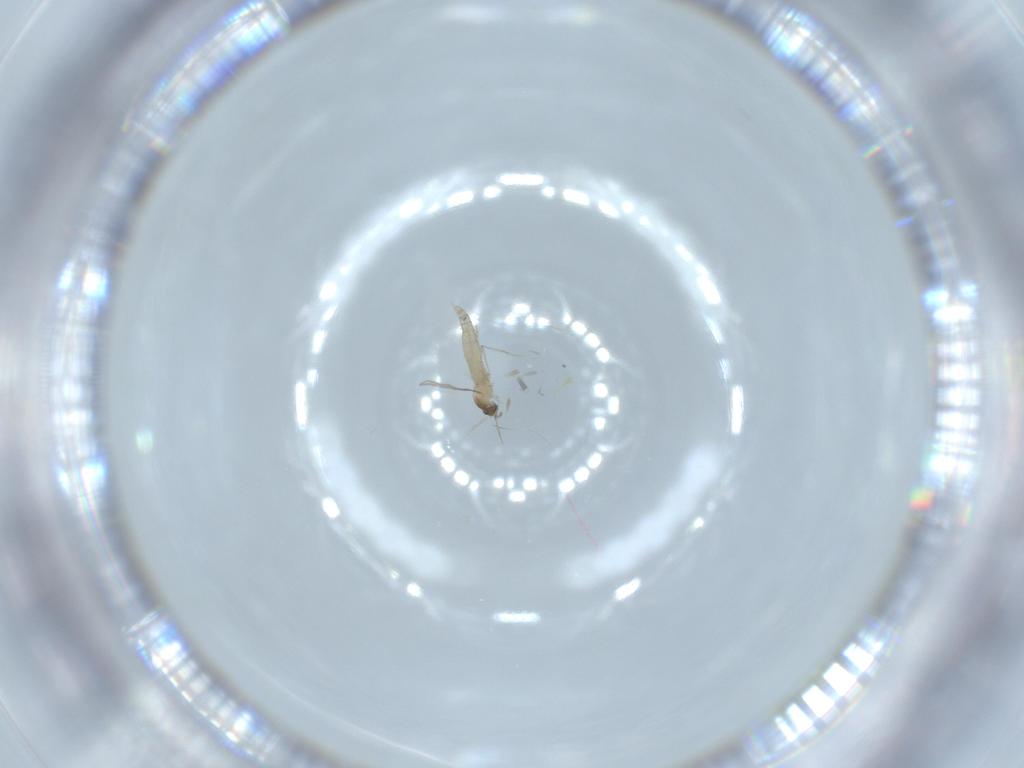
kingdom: Animalia
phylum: Arthropoda
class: Insecta
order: Diptera
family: Cecidomyiidae
